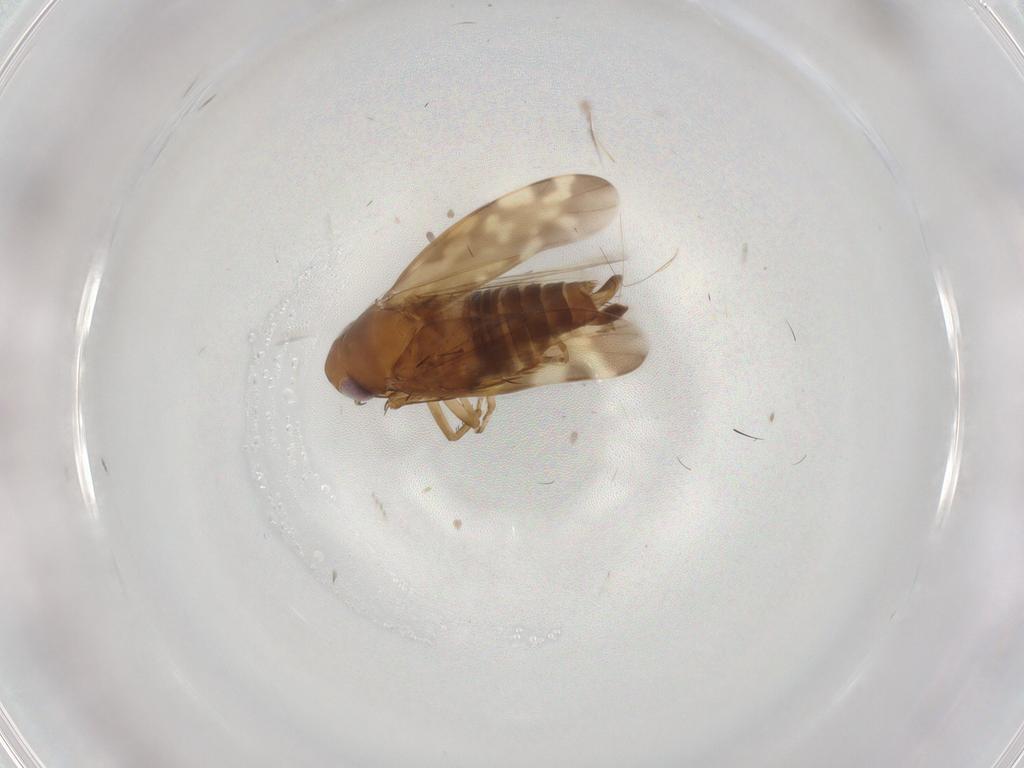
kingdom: Animalia
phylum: Arthropoda
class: Insecta
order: Hemiptera
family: Cicadellidae
